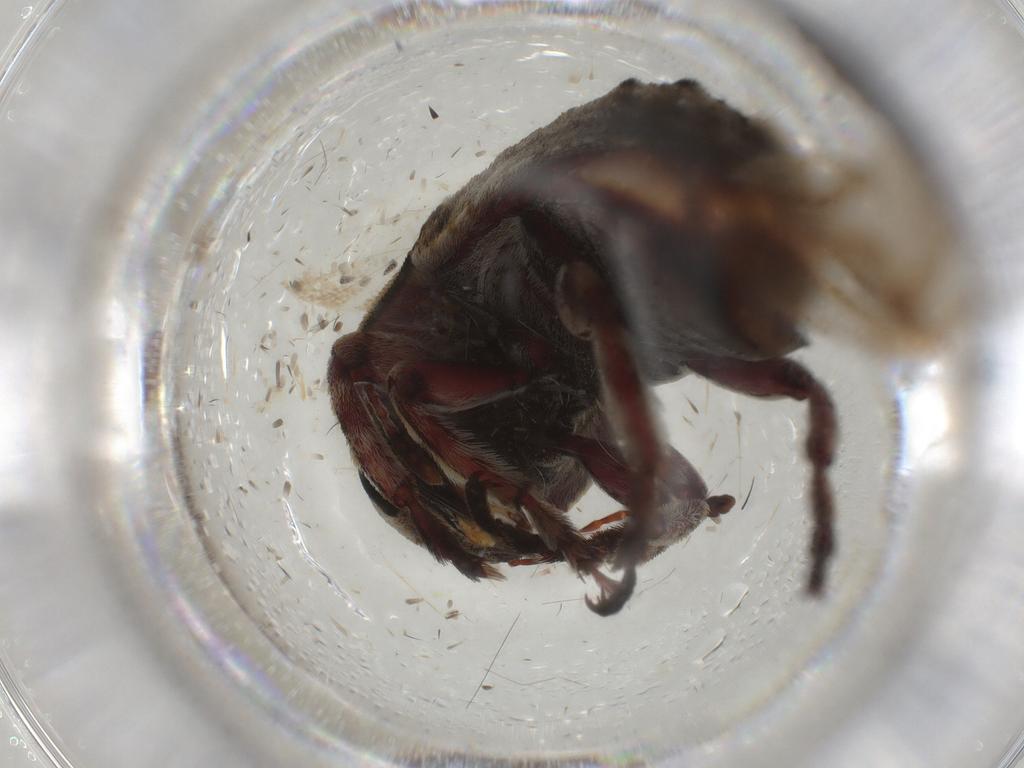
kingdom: Animalia
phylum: Arthropoda
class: Insecta
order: Coleoptera
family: Anthribidae
